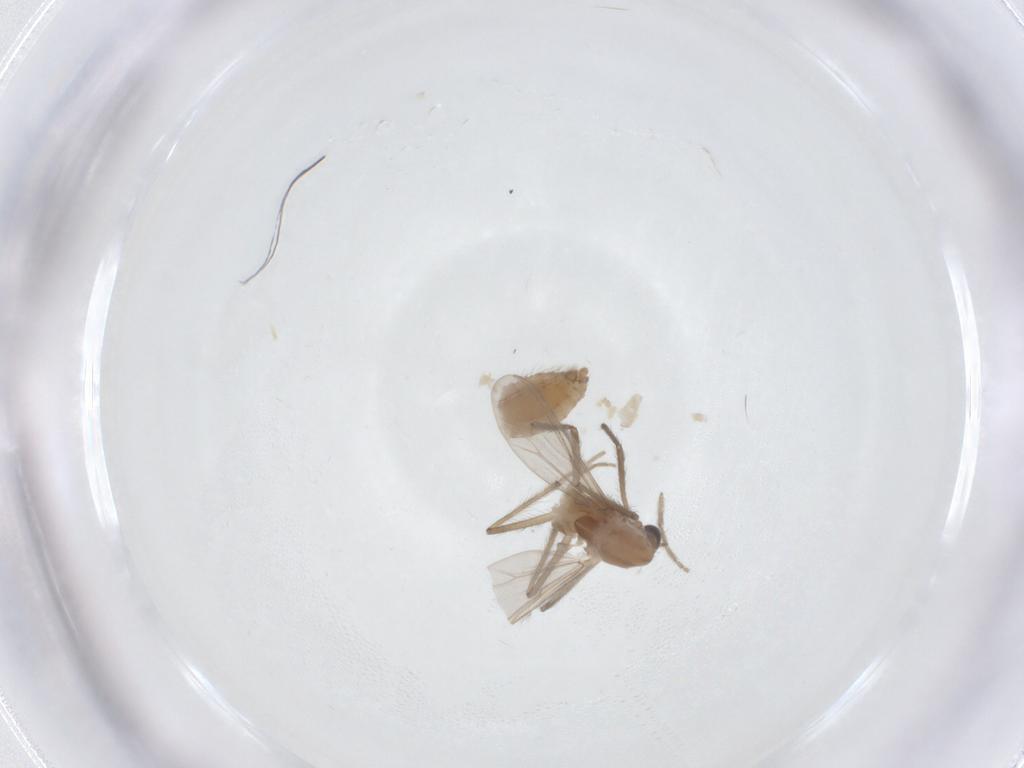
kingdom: Animalia
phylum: Arthropoda
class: Insecta
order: Diptera
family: Chironomidae
